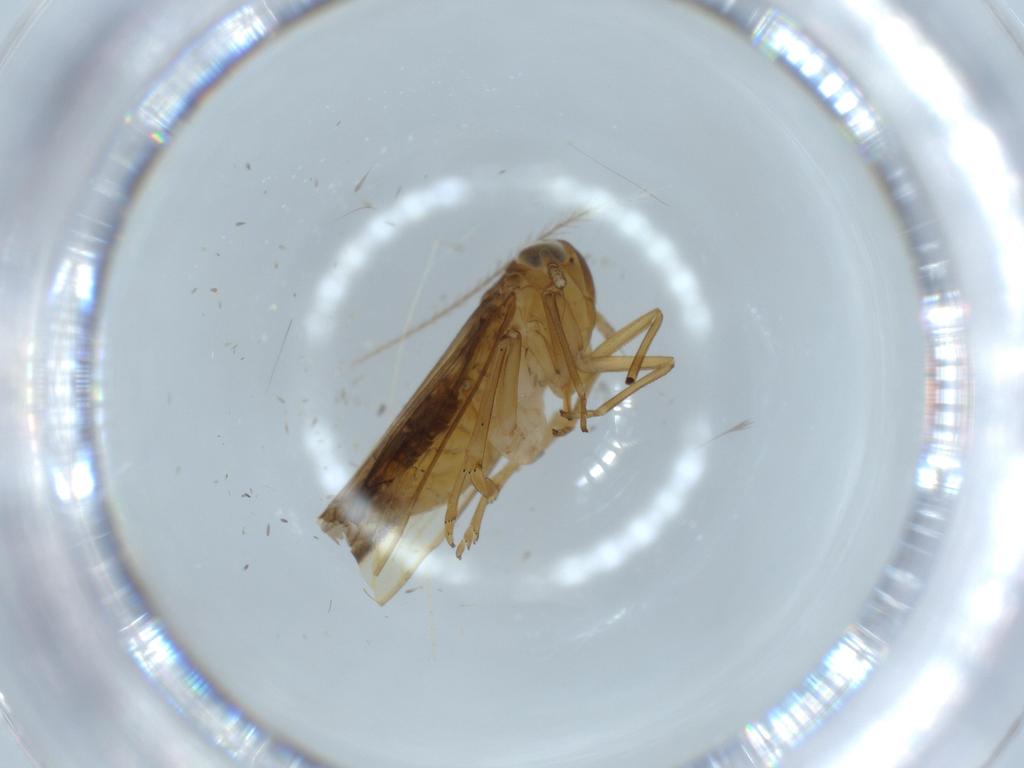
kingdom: Animalia
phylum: Arthropoda
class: Insecta
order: Hemiptera
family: Delphacidae
